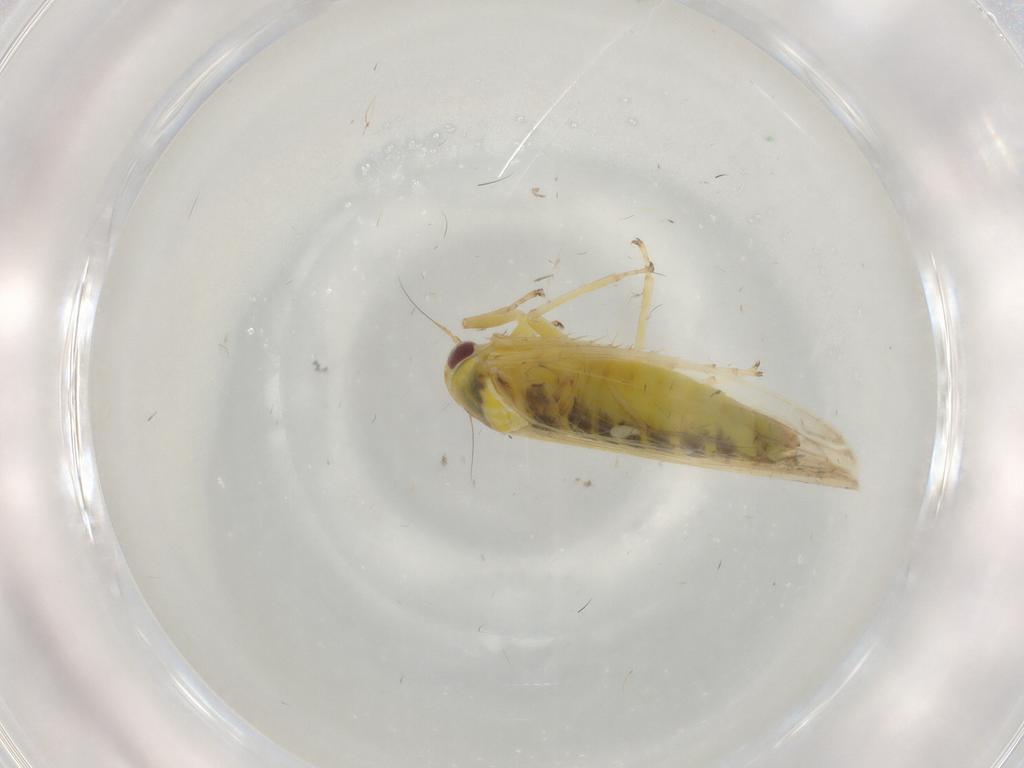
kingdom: Animalia
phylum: Arthropoda
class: Insecta
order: Hemiptera
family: Cicadellidae
